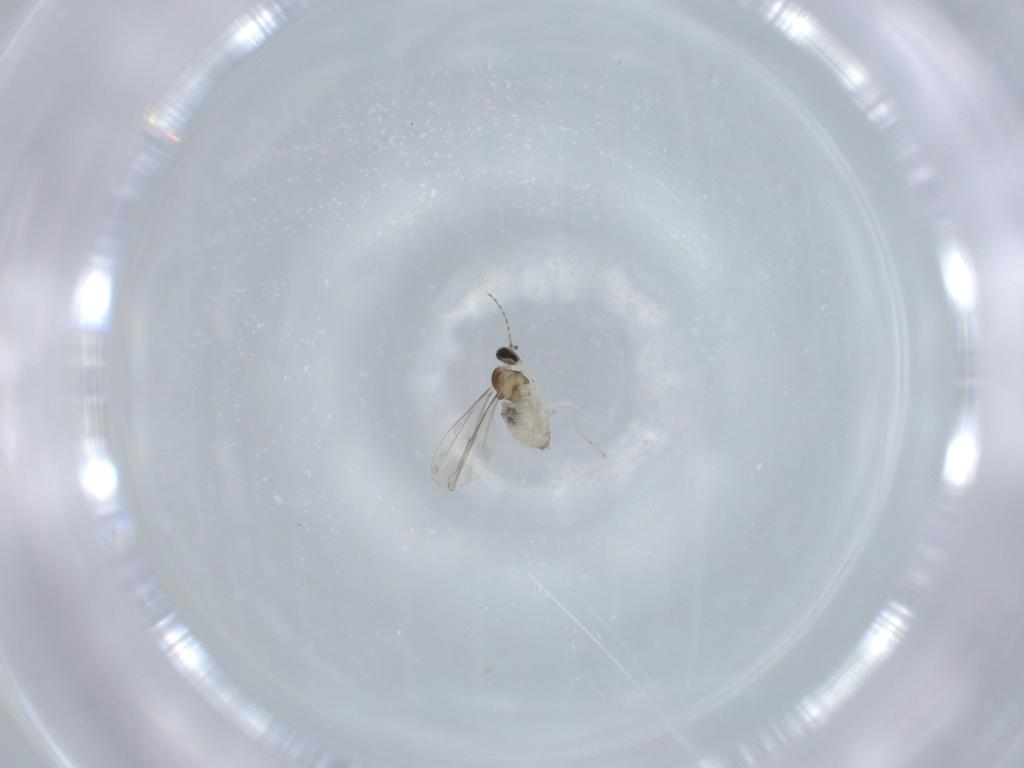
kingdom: Animalia
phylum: Arthropoda
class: Insecta
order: Diptera
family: Cecidomyiidae
